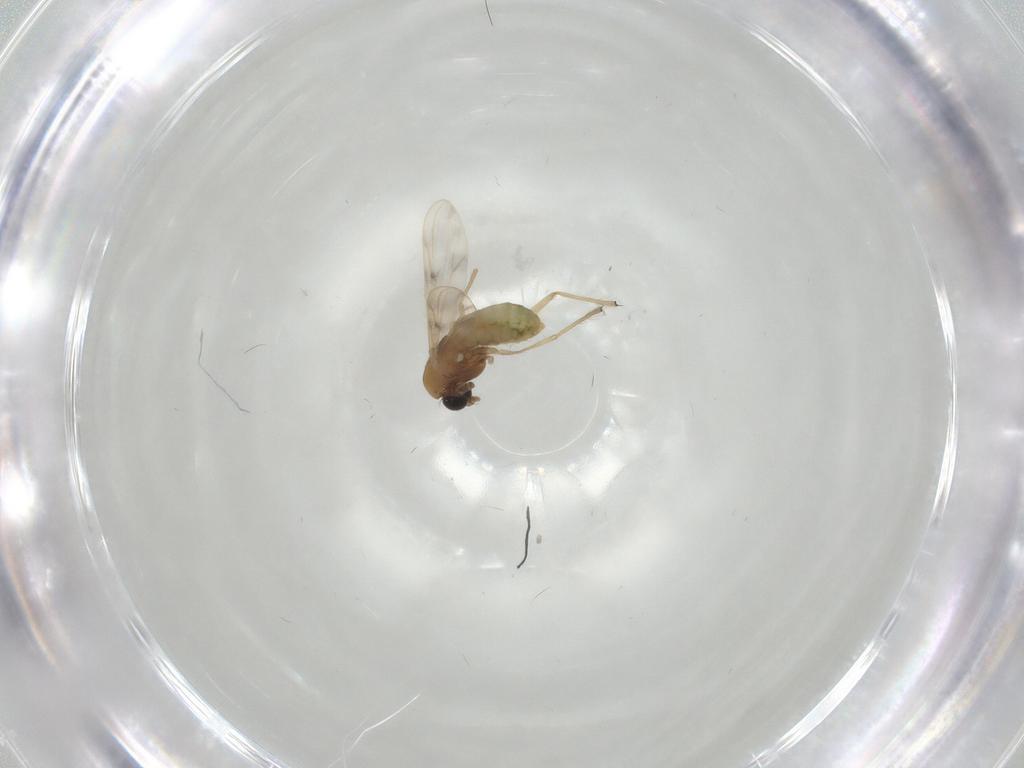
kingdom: Animalia
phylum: Arthropoda
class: Insecta
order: Diptera
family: Chironomidae
